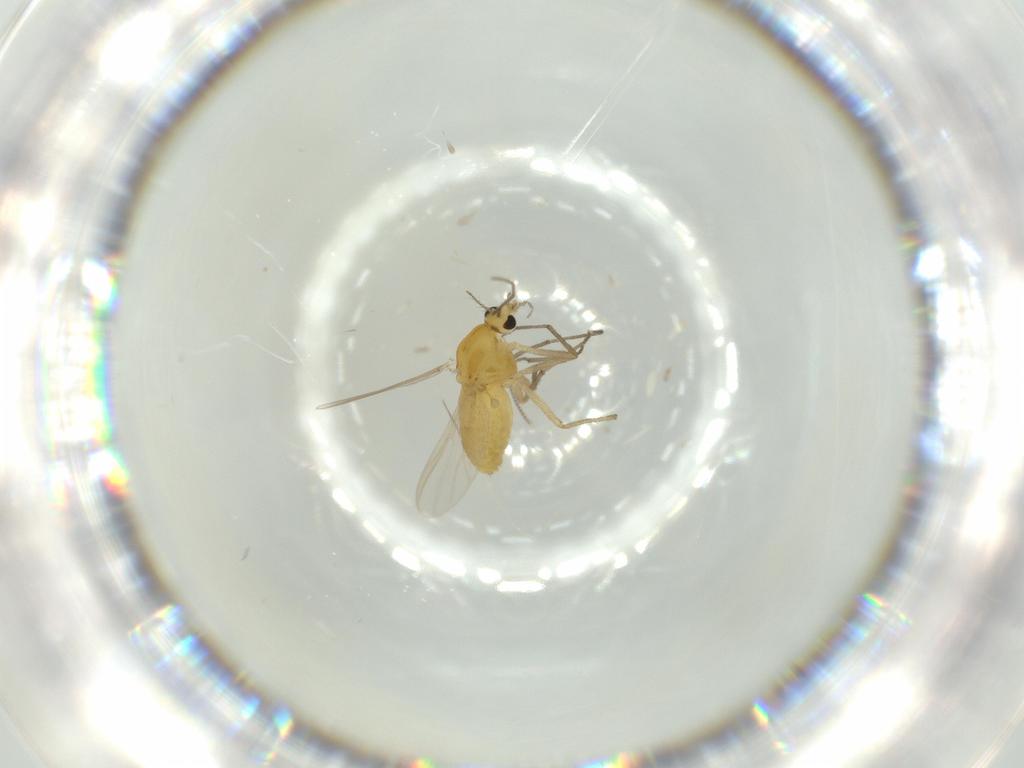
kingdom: Animalia
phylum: Arthropoda
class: Insecta
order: Diptera
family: Chironomidae
